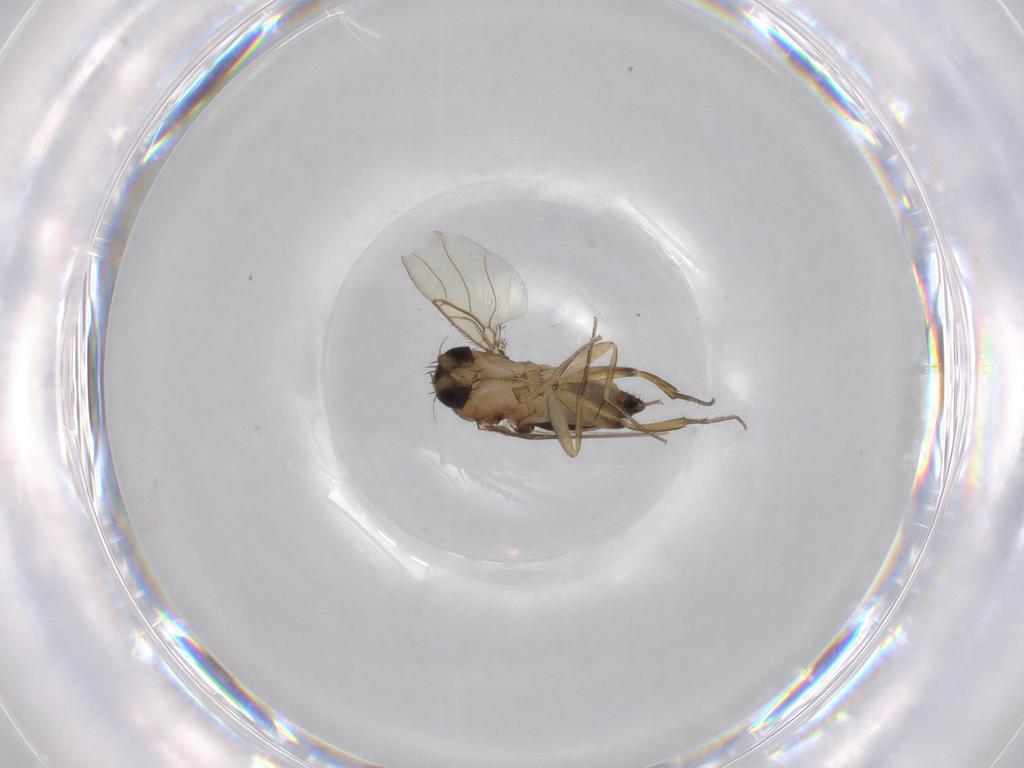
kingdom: Animalia
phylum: Arthropoda
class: Insecta
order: Diptera
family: Phoridae
